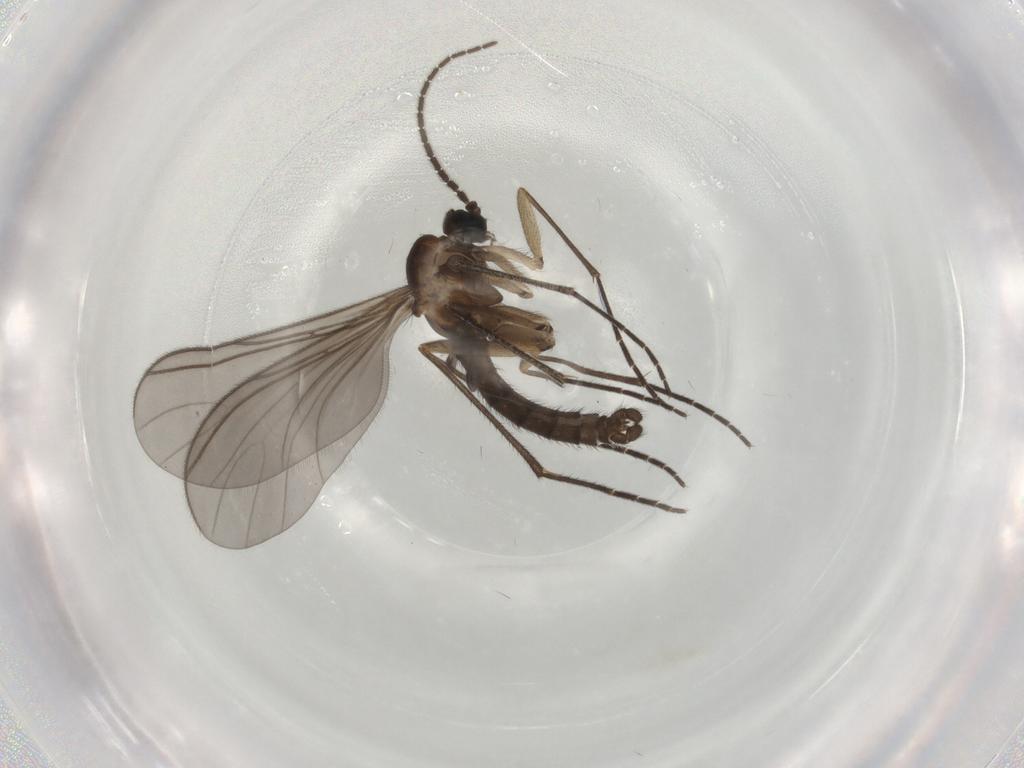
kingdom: Animalia
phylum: Arthropoda
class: Insecta
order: Diptera
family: Sciaridae
